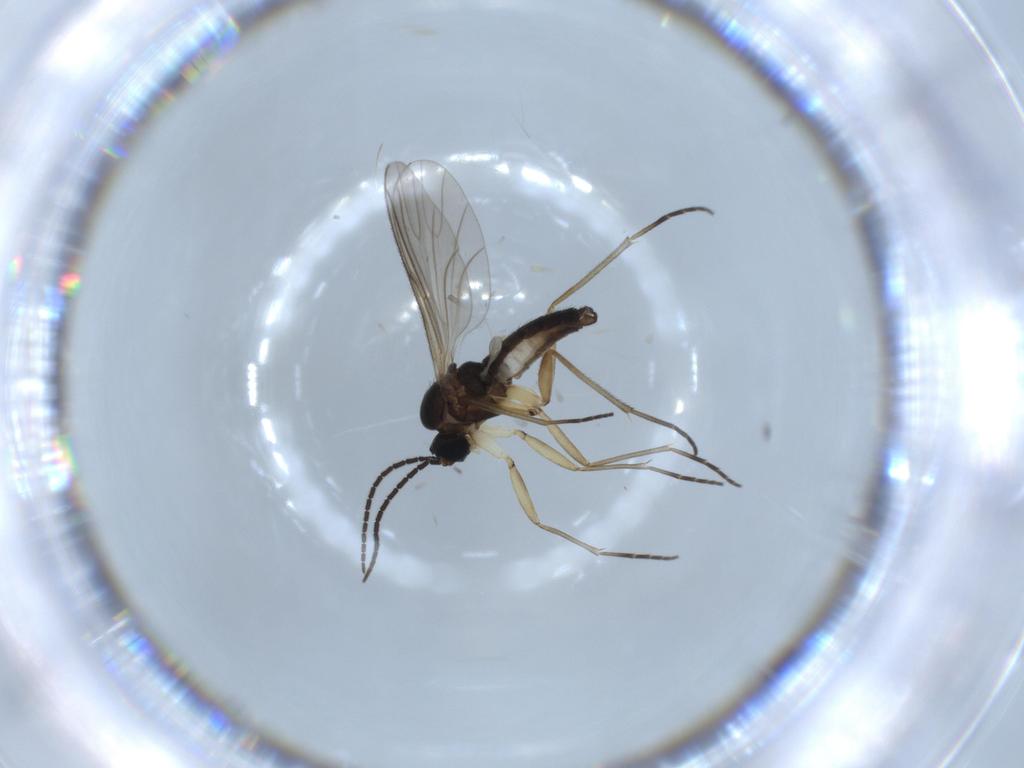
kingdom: Animalia
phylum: Arthropoda
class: Insecta
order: Diptera
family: Sciaridae
